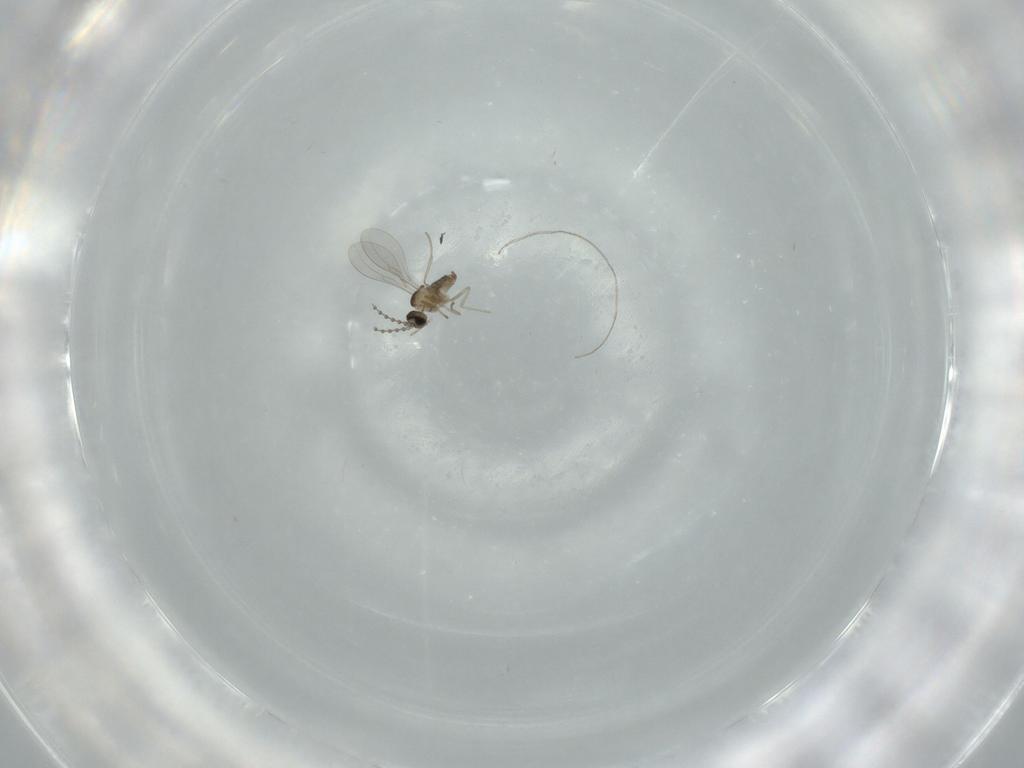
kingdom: Animalia
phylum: Arthropoda
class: Insecta
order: Diptera
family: Cecidomyiidae
